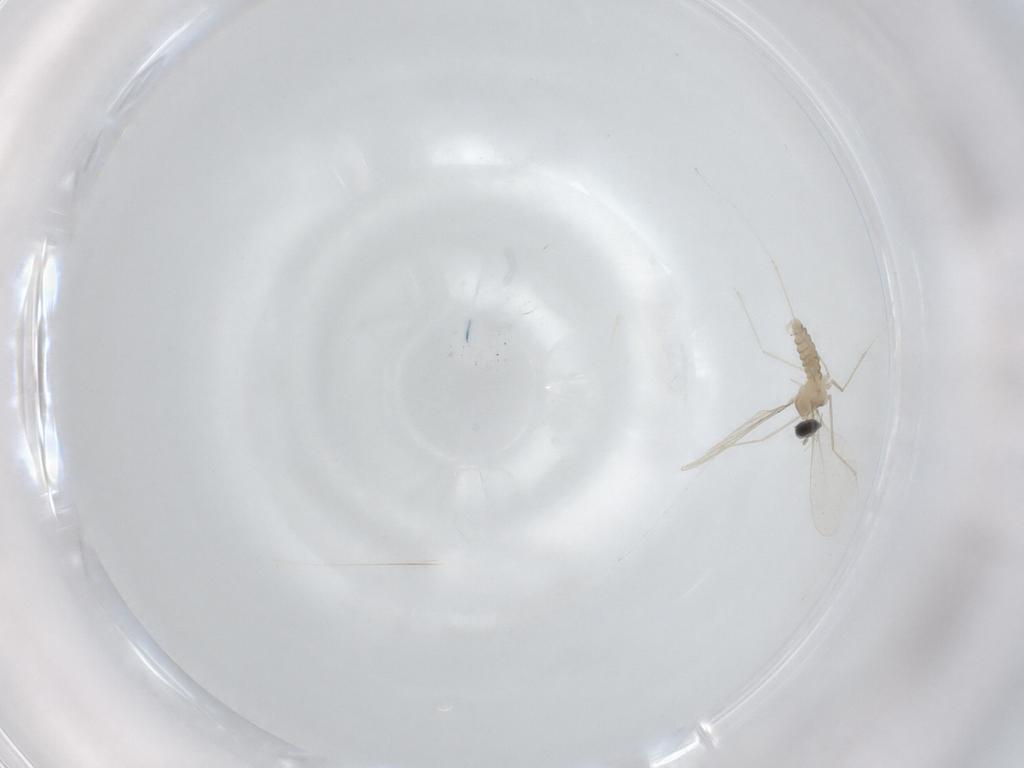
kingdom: Animalia
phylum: Arthropoda
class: Insecta
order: Diptera
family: Cecidomyiidae
